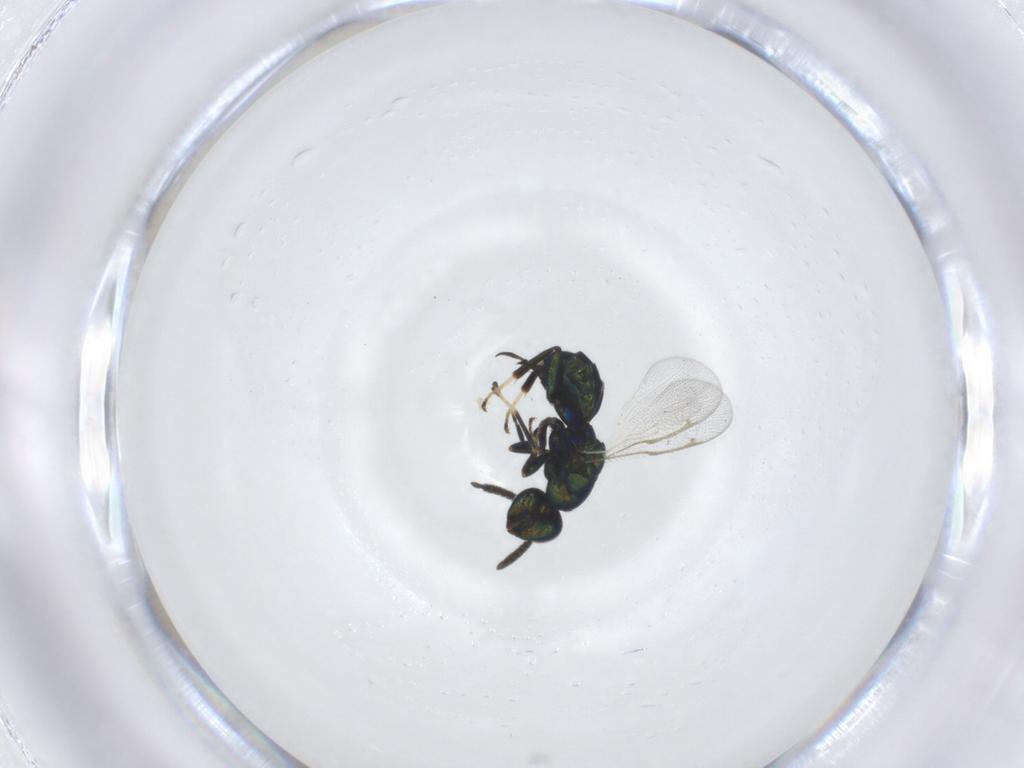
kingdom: Animalia
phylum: Arthropoda
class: Insecta
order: Hymenoptera
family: Torymidae
